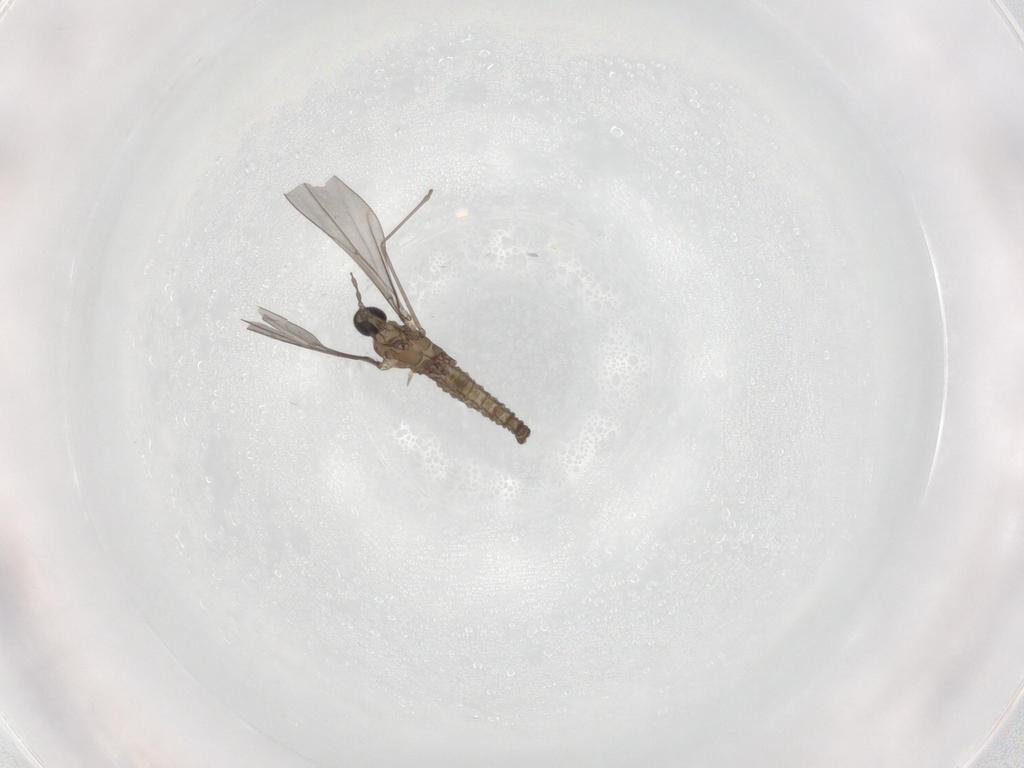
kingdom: Animalia
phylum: Arthropoda
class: Insecta
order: Diptera
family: Cecidomyiidae
